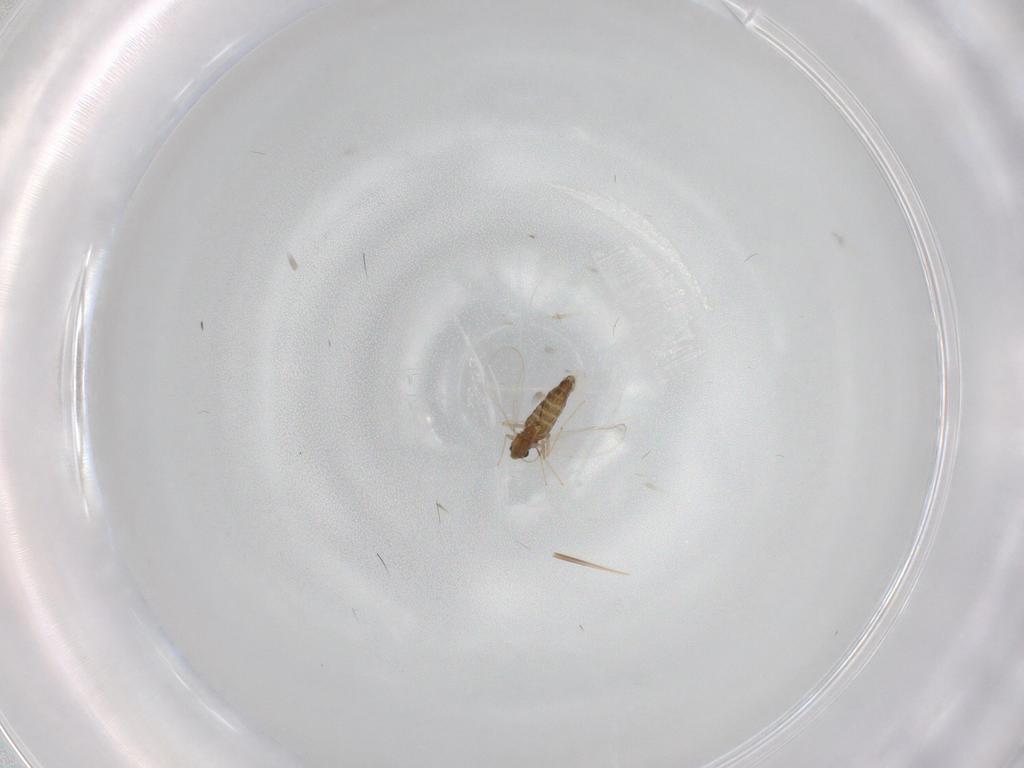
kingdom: Animalia
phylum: Arthropoda
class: Insecta
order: Diptera
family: Chironomidae
